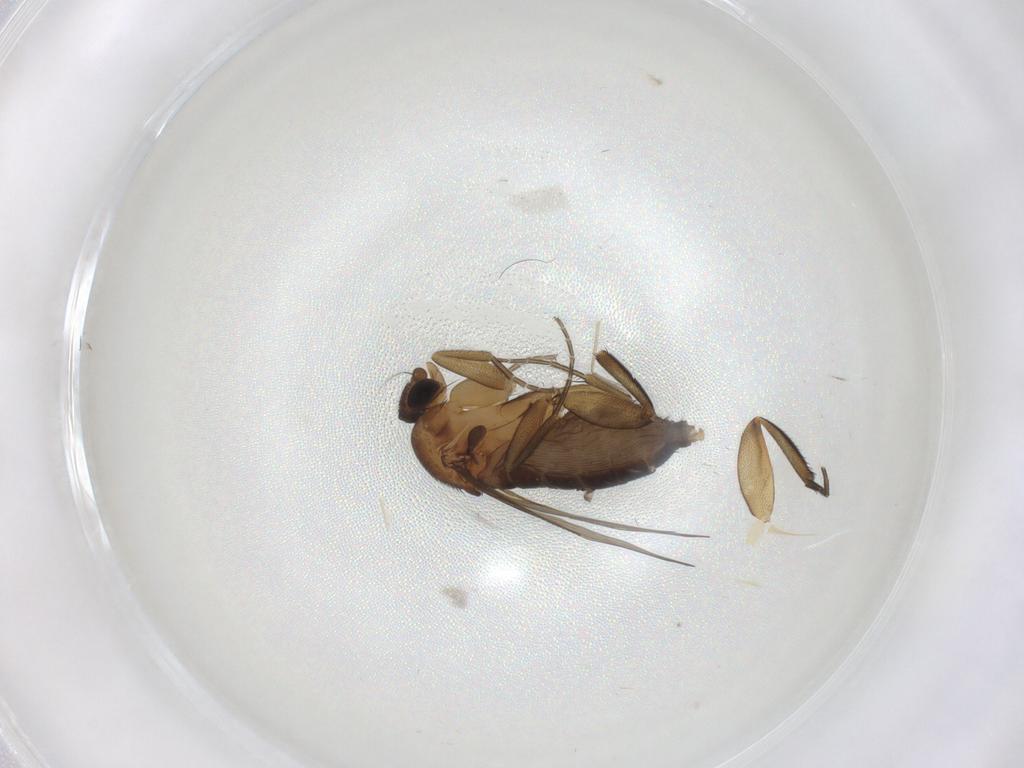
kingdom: Animalia
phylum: Arthropoda
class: Insecta
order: Diptera
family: Phoridae
